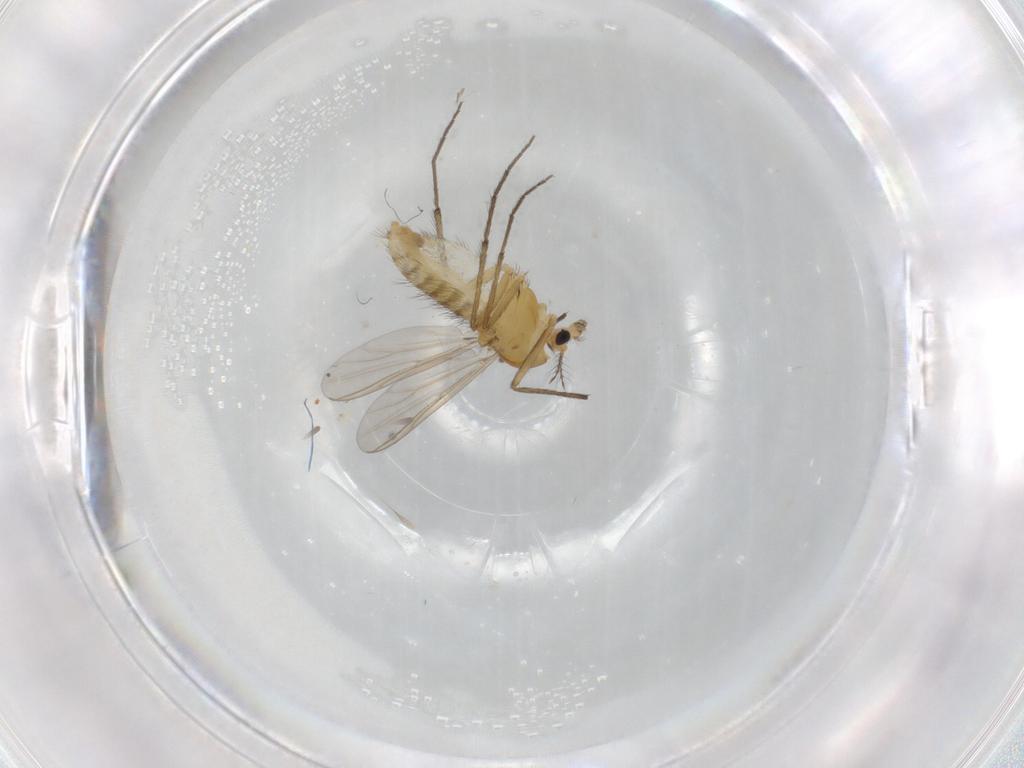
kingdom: Animalia
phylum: Arthropoda
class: Insecta
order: Diptera
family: Chironomidae
